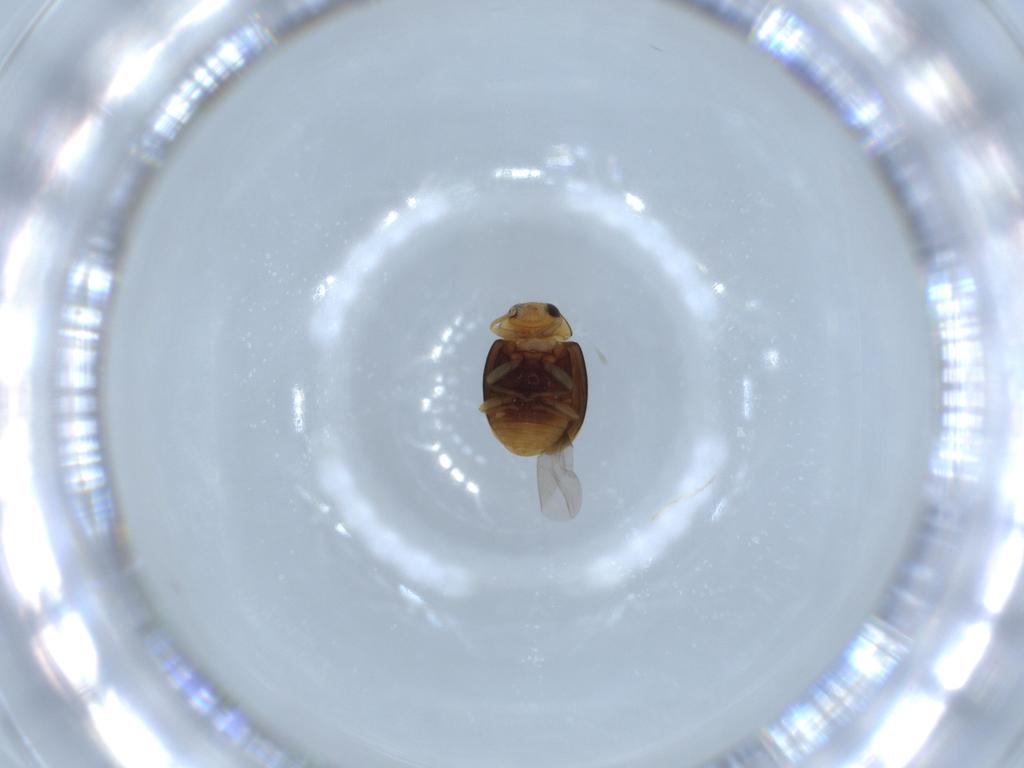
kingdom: Animalia
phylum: Arthropoda
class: Insecta
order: Coleoptera
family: Coccinellidae
